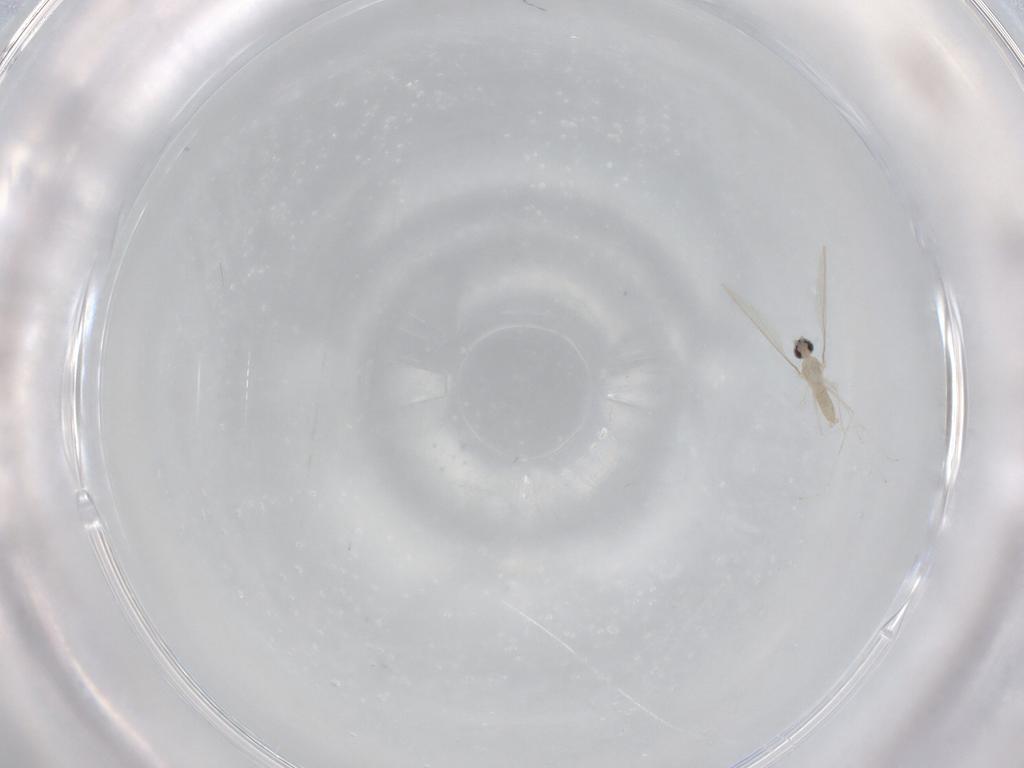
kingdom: Animalia
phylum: Arthropoda
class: Insecta
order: Diptera
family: Cecidomyiidae
